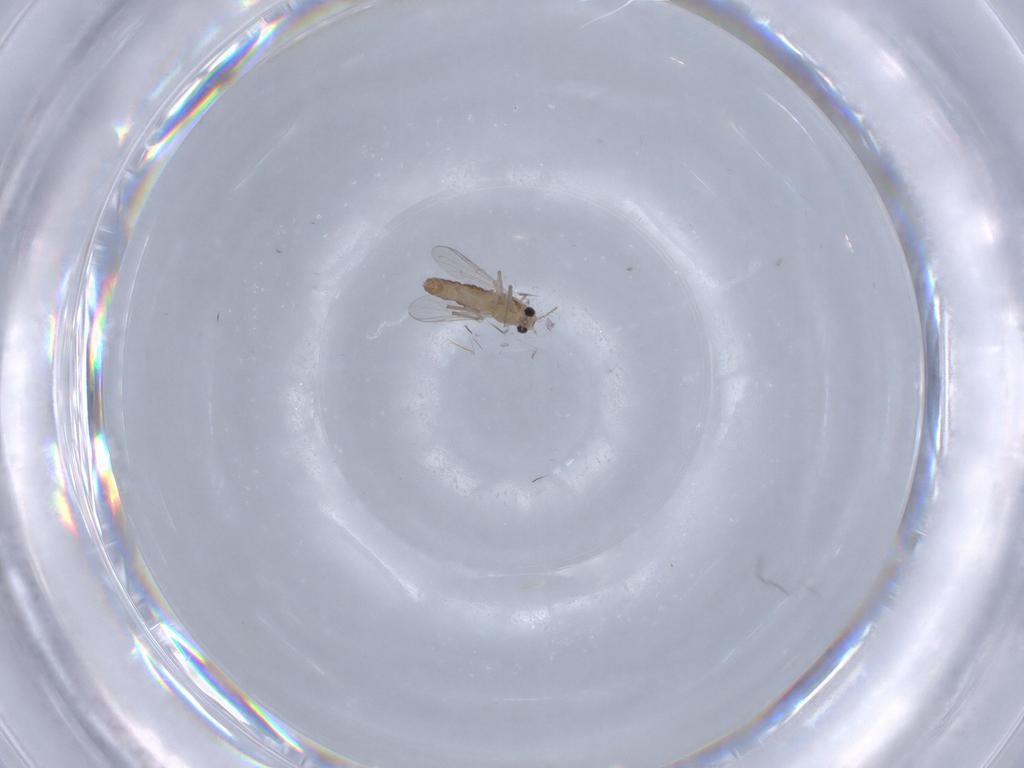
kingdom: Animalia
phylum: Arthropoda
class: Insecta
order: Diptera
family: Chironomidae
